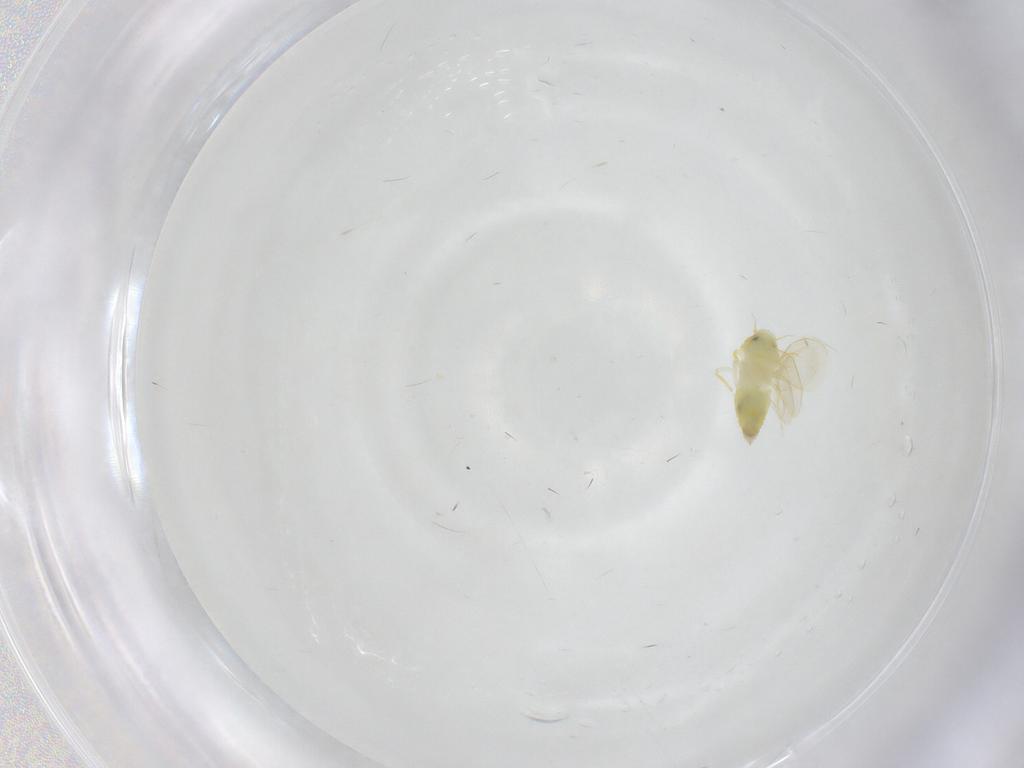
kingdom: Animalia
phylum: Arthropoda
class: Insecta
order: Hemiptera
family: Aleyrodidae
